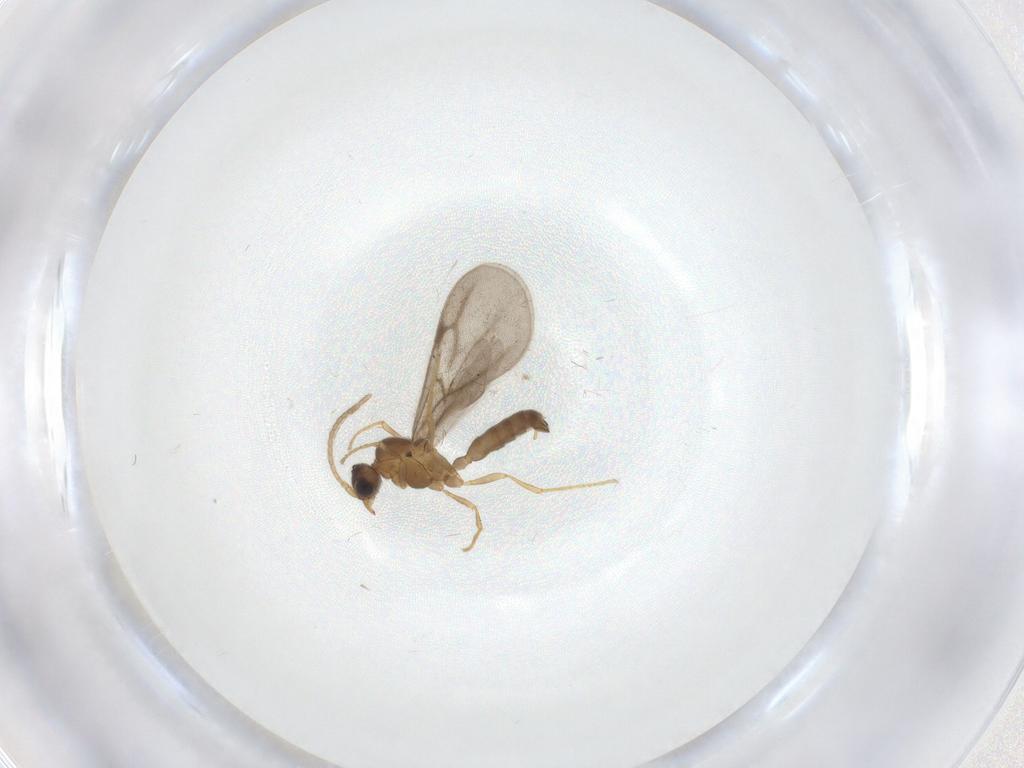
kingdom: Animalia
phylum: Arthropoda
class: Insecta
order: Hymenoptera
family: Formicidae
